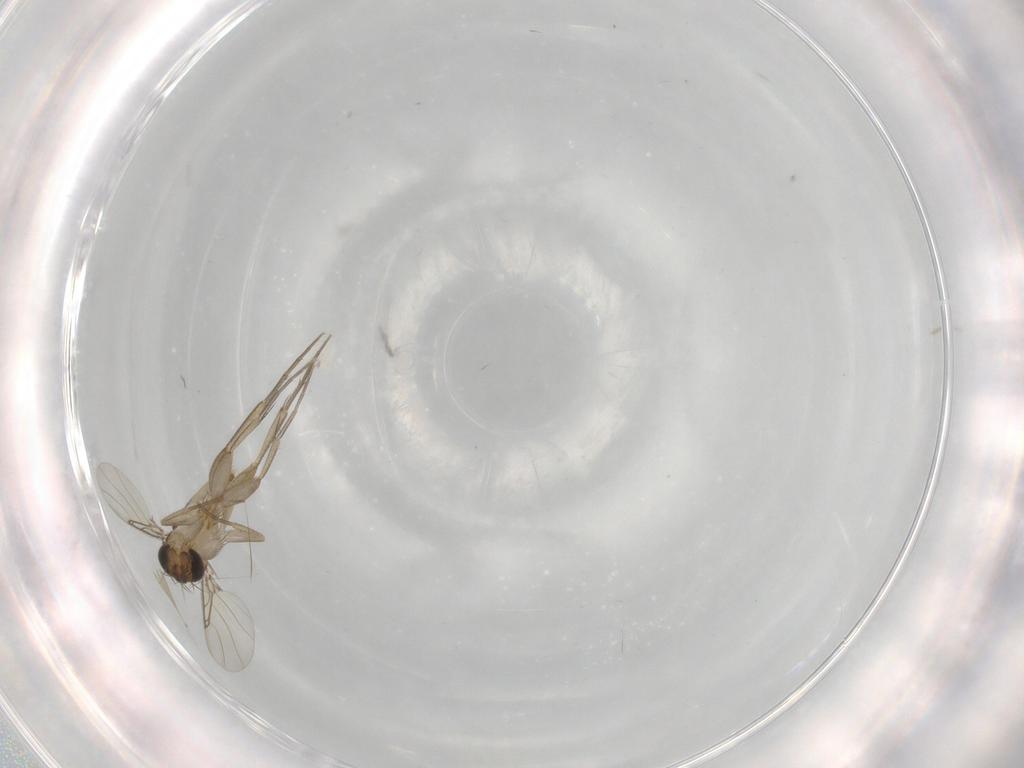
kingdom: Animalia
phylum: Arthropoda
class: Insecta
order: Diptera
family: Phoridae
